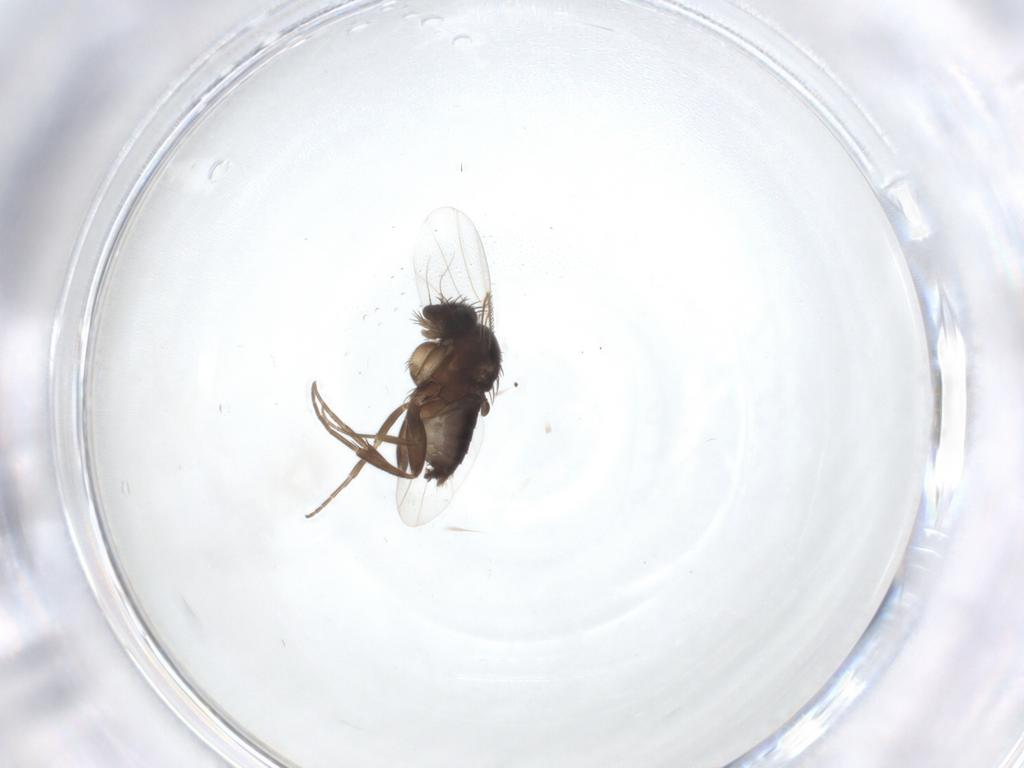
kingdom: Animalia
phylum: Arthropoda
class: Insecta
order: Diptera
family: Phoridae
